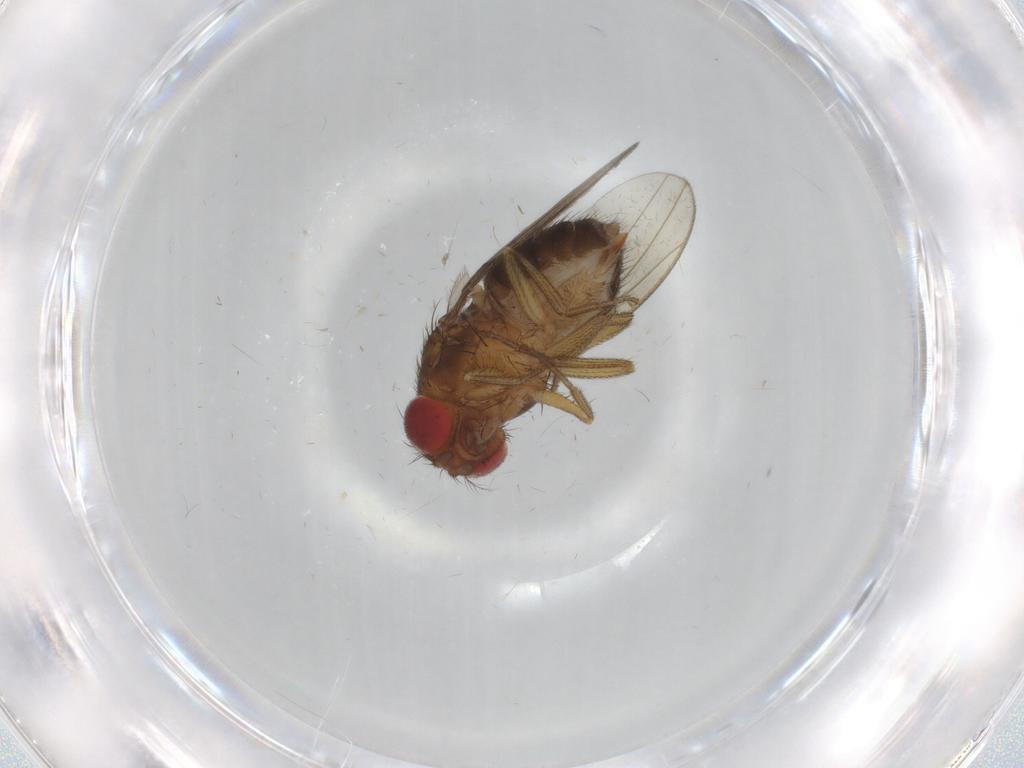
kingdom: Animalia
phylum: Arthropoda
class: Insecta
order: Diptera
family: Drosophilidae
